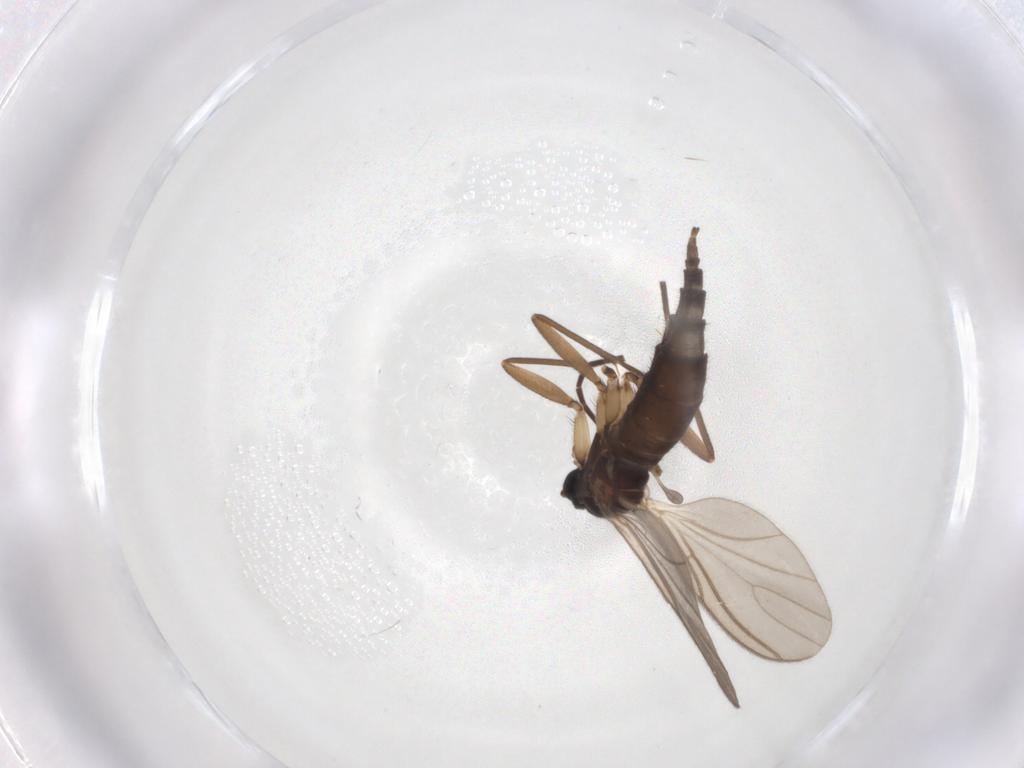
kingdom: Animalia
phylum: Arthropoda
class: Insecta
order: Diptera
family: Sciaridae
